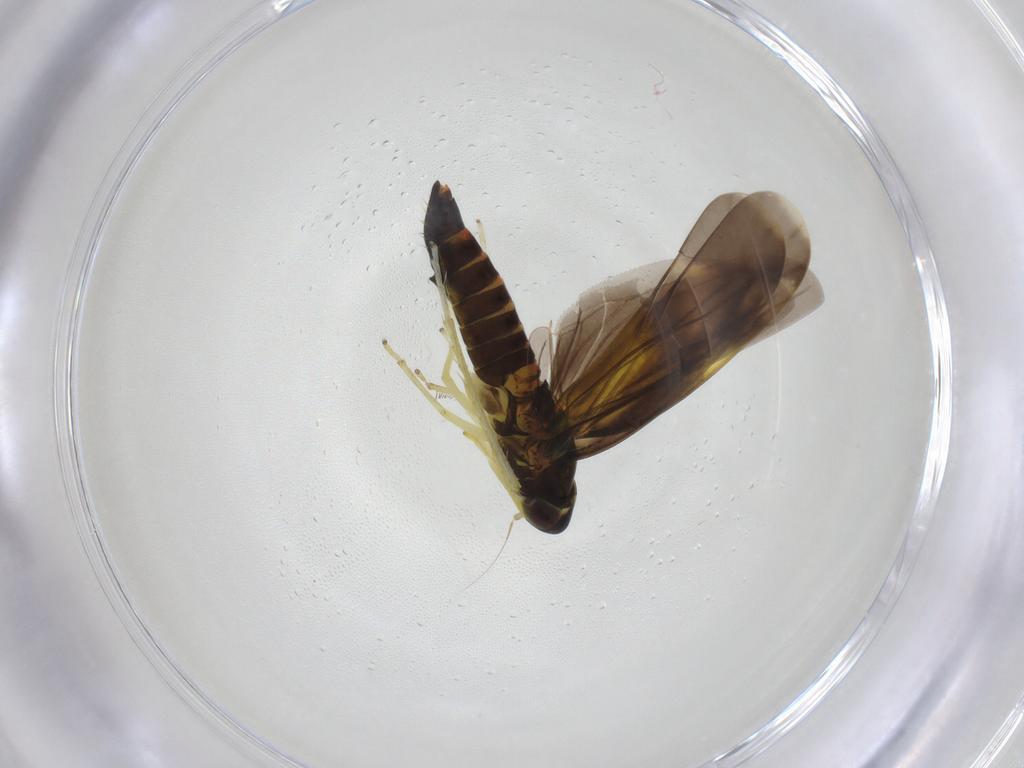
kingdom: Animalia
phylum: Arthropoda
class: Insecta
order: Hemiptera
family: Cicadellidae
